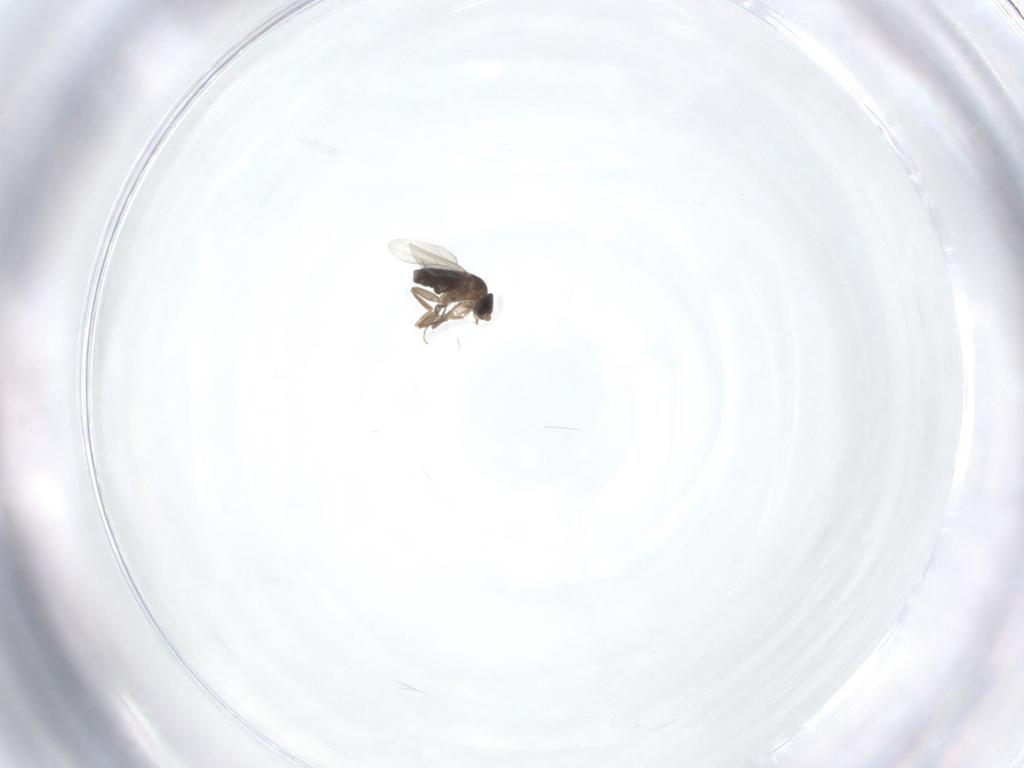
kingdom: Animalia
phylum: Arthropoda
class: Insecta
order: Diptera
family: Phoridae
